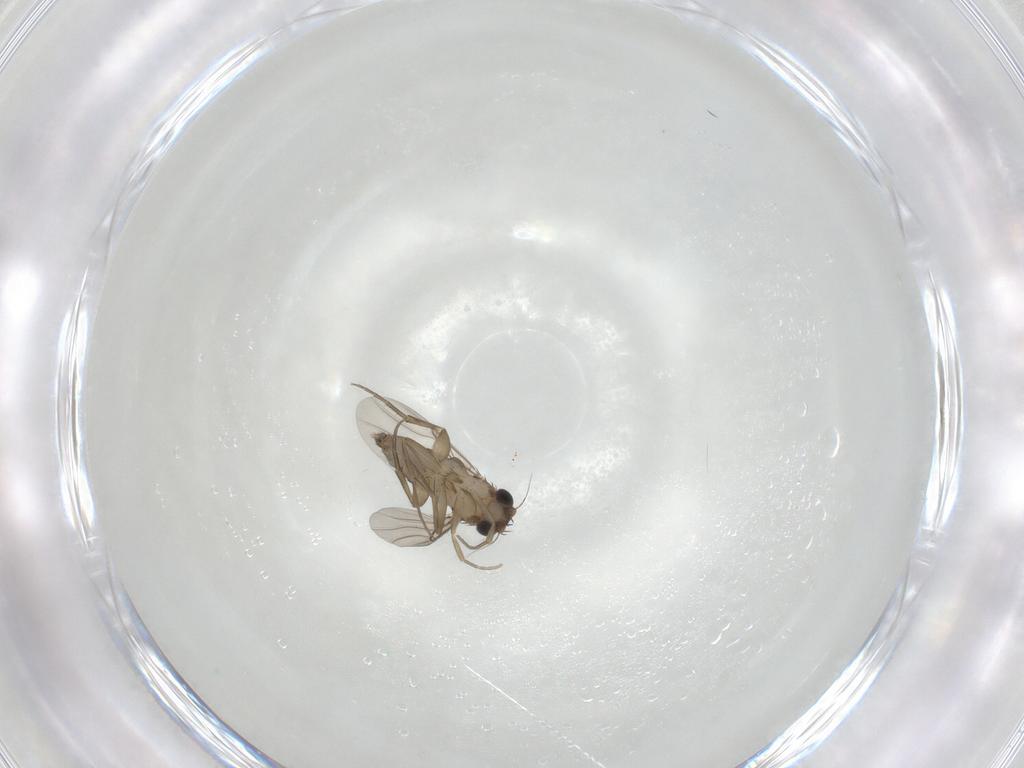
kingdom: Animalia
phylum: Arthropoda
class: Insecta
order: Diptera
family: Phoridae
